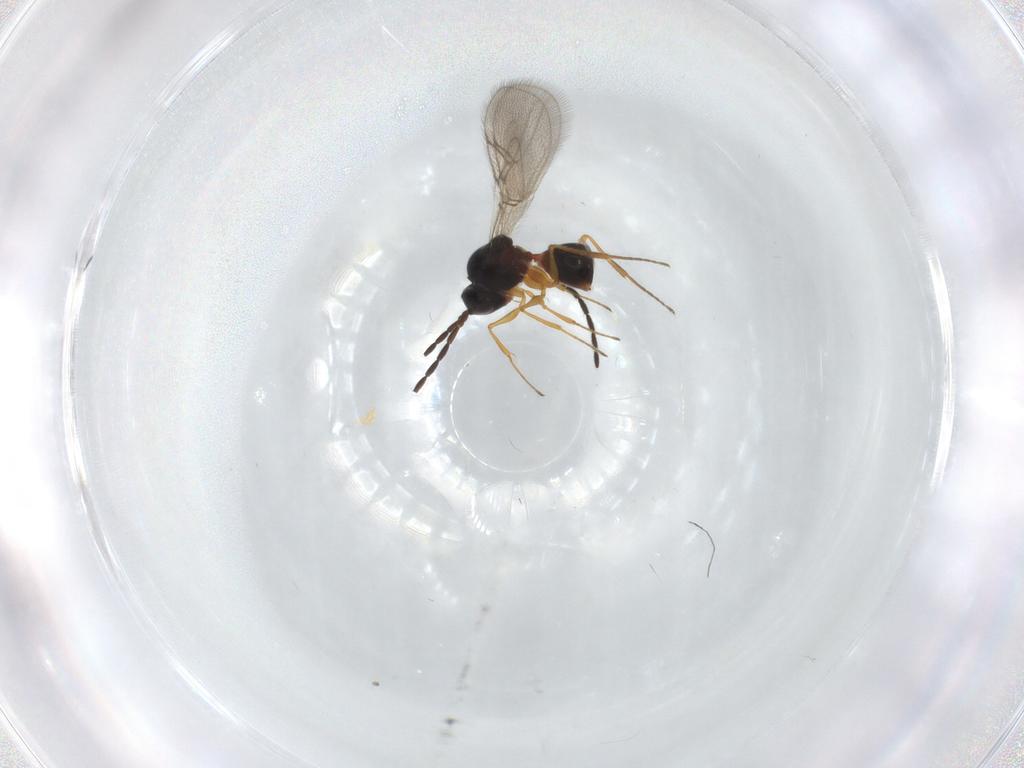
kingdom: Animalia
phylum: Arthropoda
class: Insecta
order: Hymenoptera
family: Figitidae
